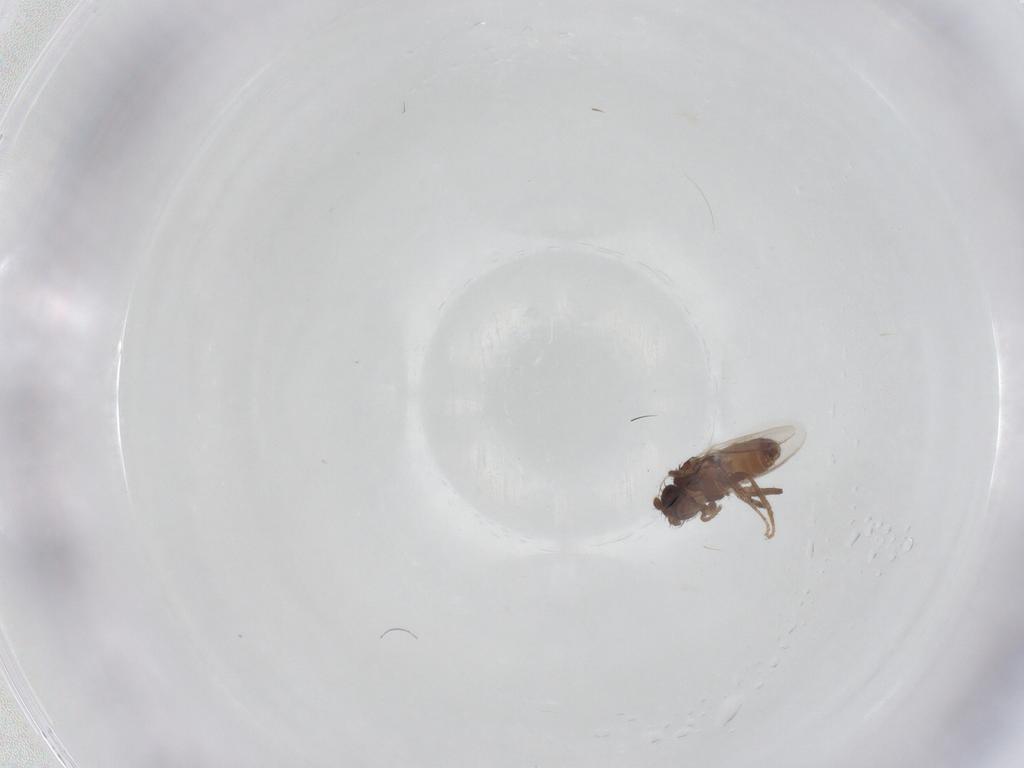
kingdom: Animalia
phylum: Arthropoda
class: Insecta
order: Diptera
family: Sphaeroceridae
